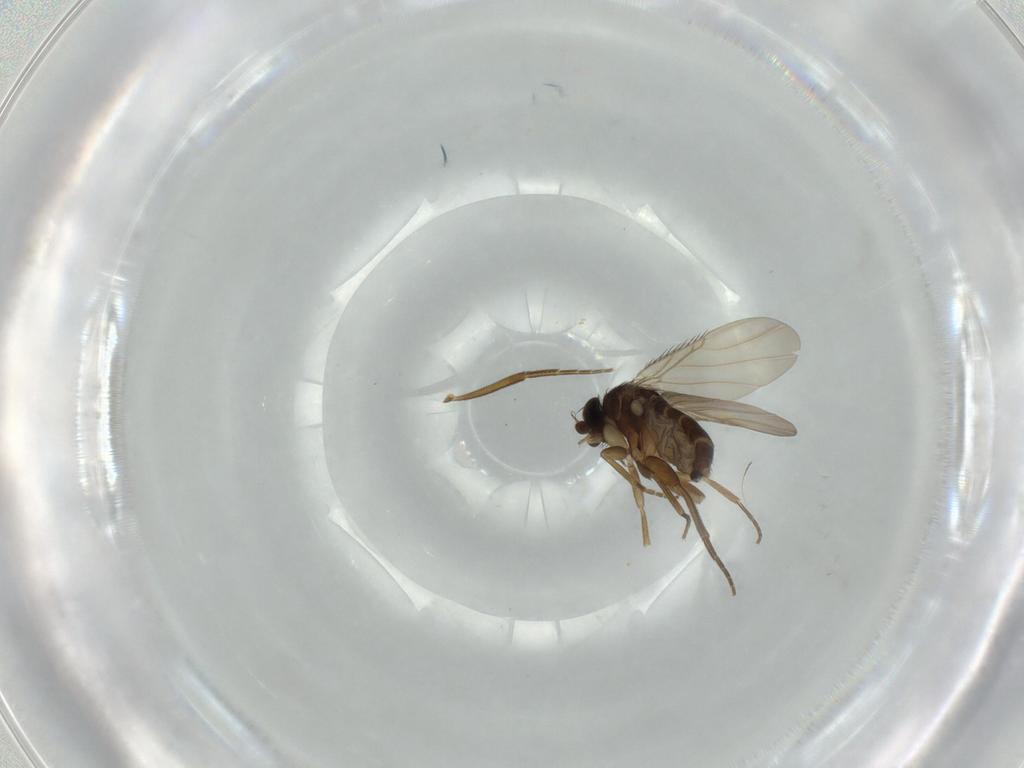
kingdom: Animalia
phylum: Arthropoda
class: Insecta
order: Diptera
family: Phoridae
